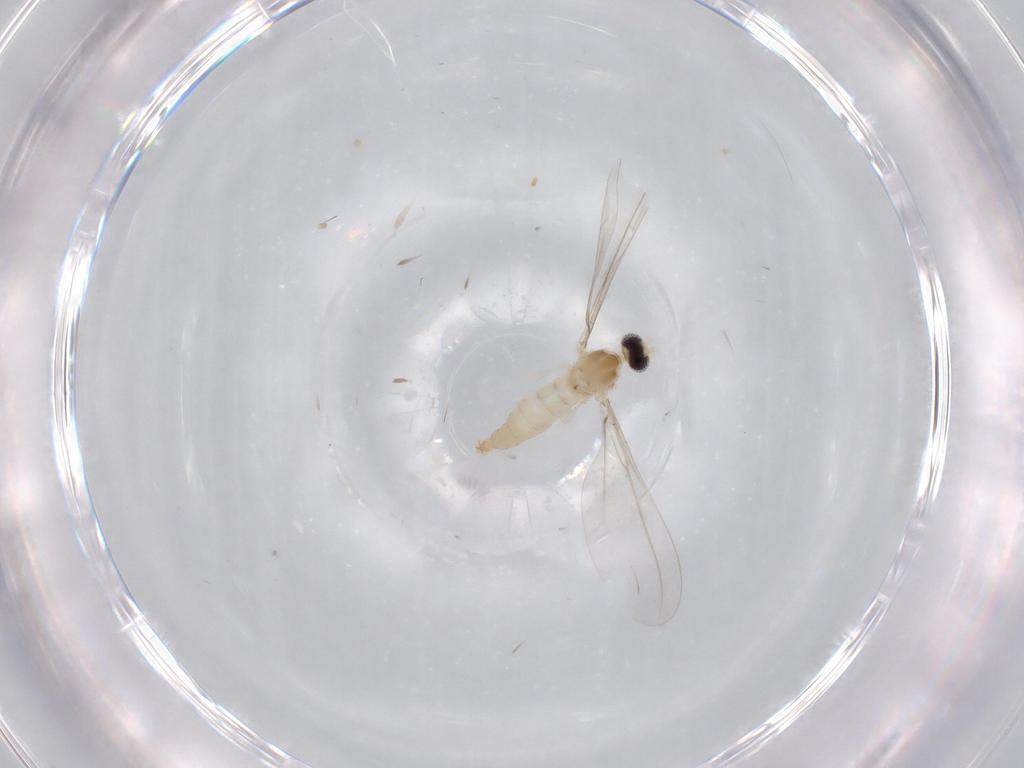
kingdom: Animalia
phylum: Arthropoda
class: Insecta
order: Diptera
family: Cecidomyiidae
